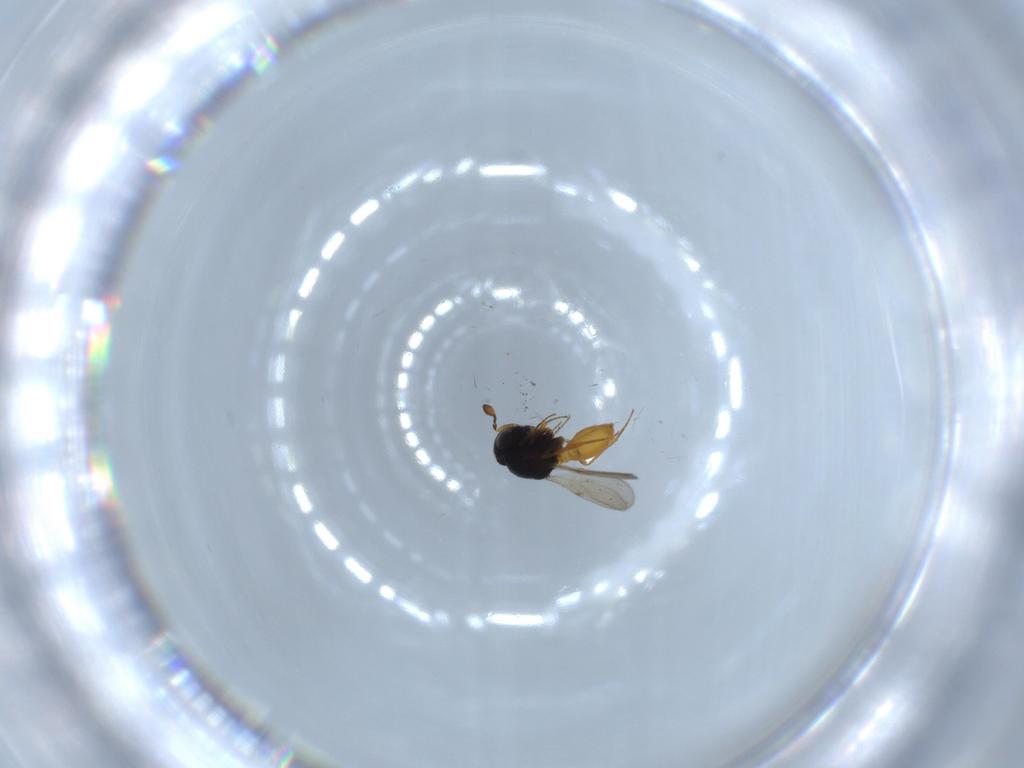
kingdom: Animalia
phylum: Arthropoda
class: Insecta
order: Hymenoptera
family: Scelionidae
